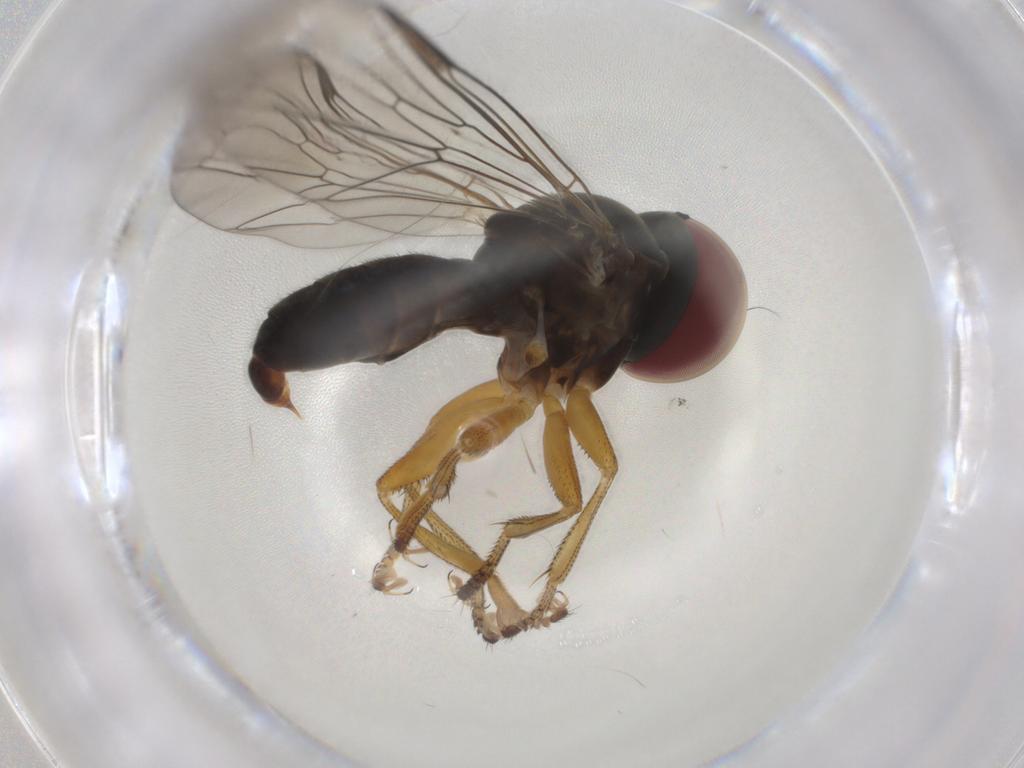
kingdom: Animalia
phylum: Arthropoda
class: Insecta
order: Diptera
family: Pipunculidae
